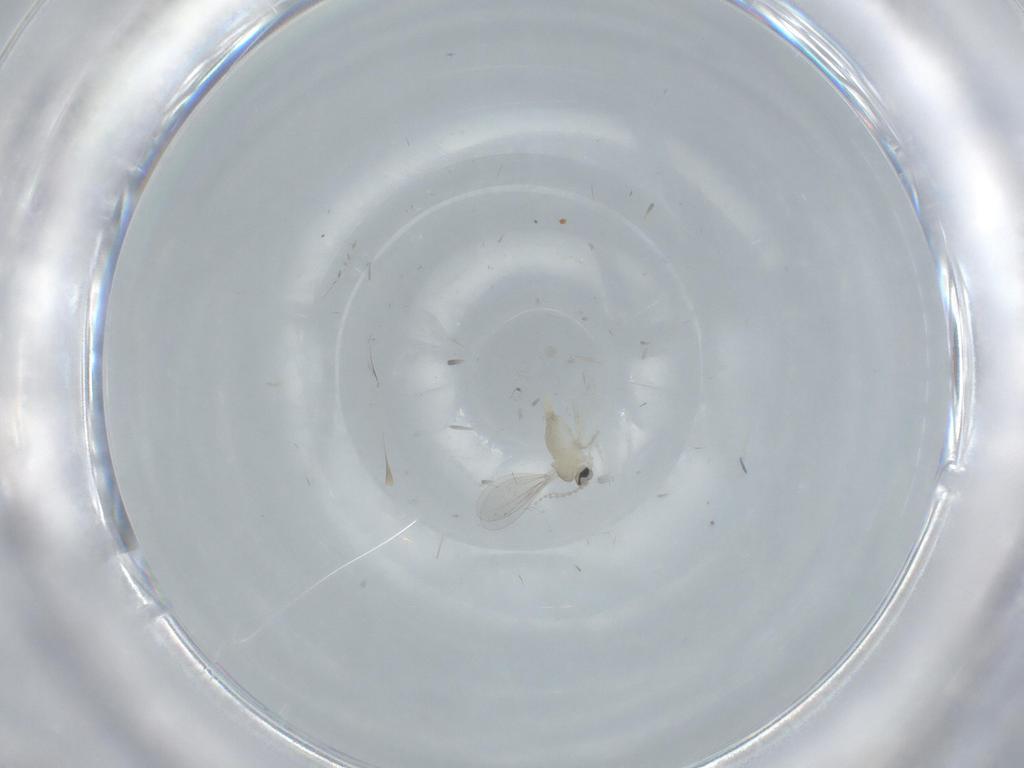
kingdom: Animalia
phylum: Arthropoda
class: Insecta
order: Diptera
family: Cecidomyiidae
